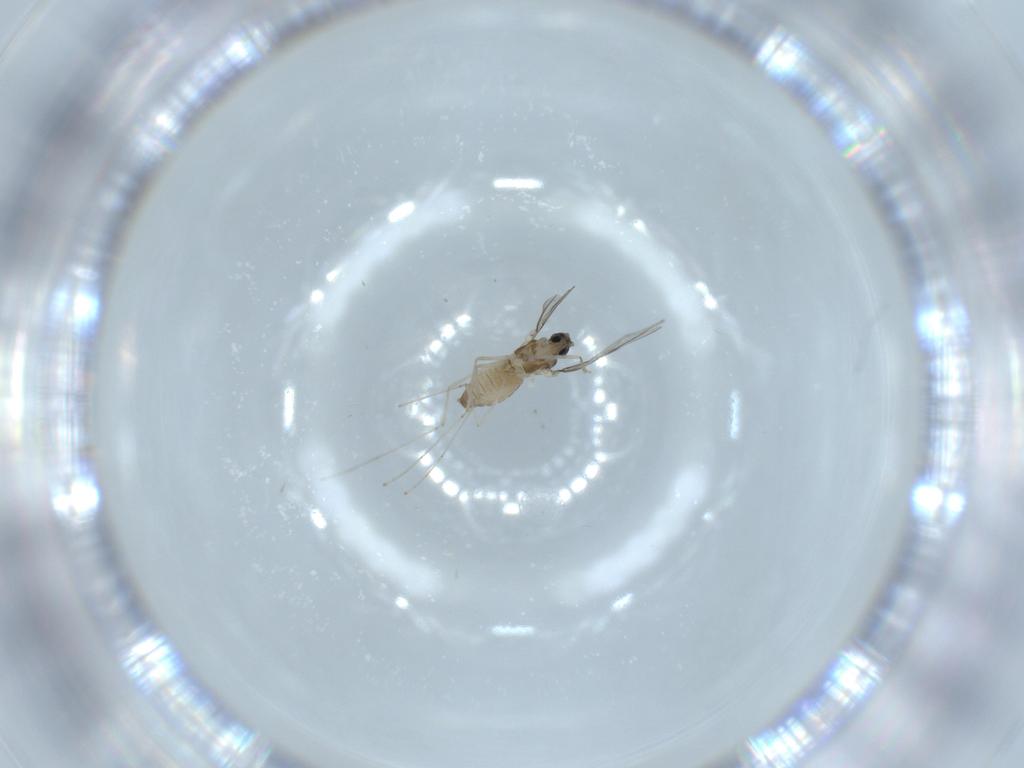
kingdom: Animalia
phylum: Arthropoda
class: Insecta
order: Diptera
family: Cecidomyiidae
